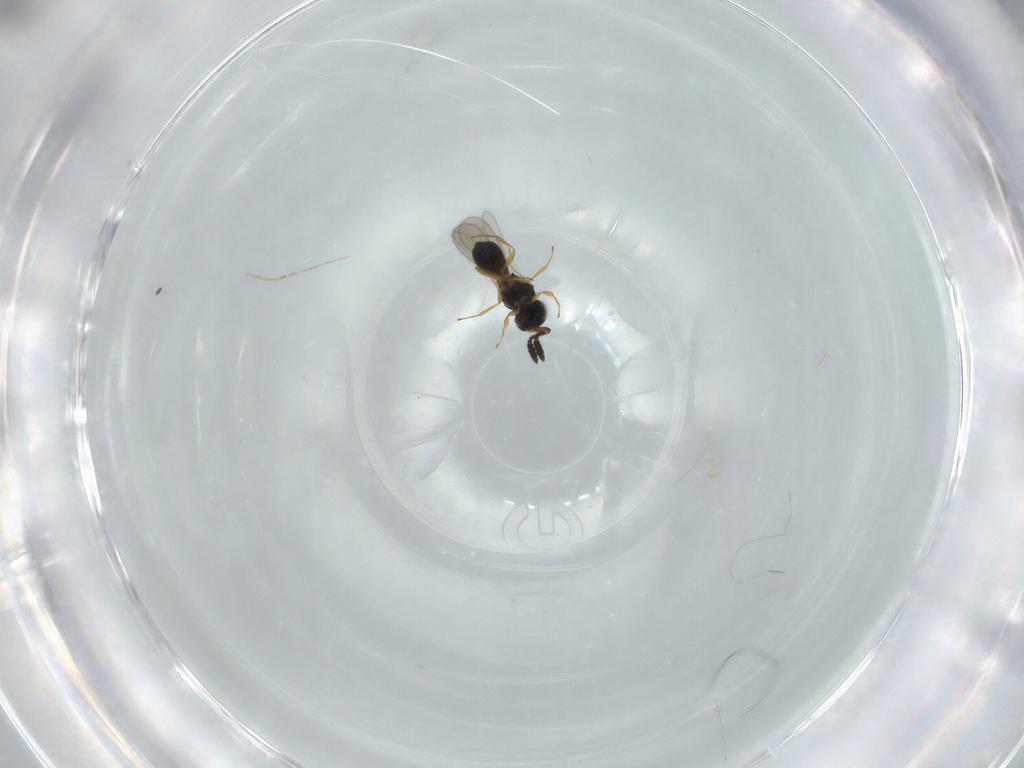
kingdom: Animalia
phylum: Arthropoda
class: Insecta
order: Hymenoptera
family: Scelionidae
